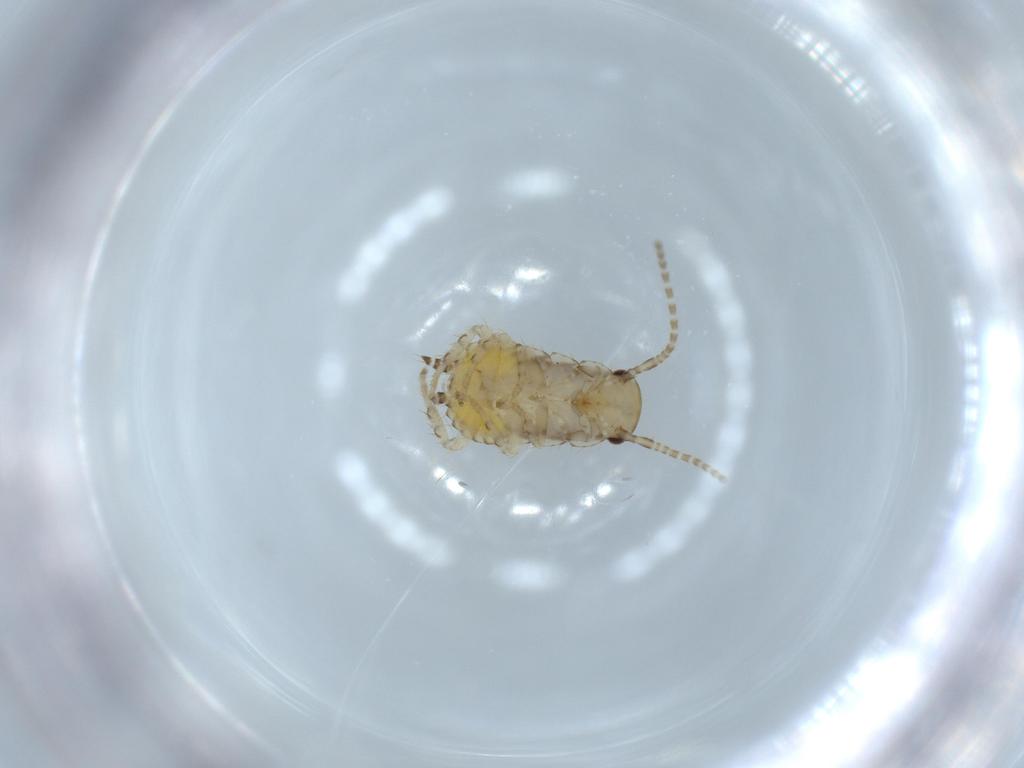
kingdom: Animalia
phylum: Arthropoda
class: Insecta
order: Blattodea
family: Ectobiidae
